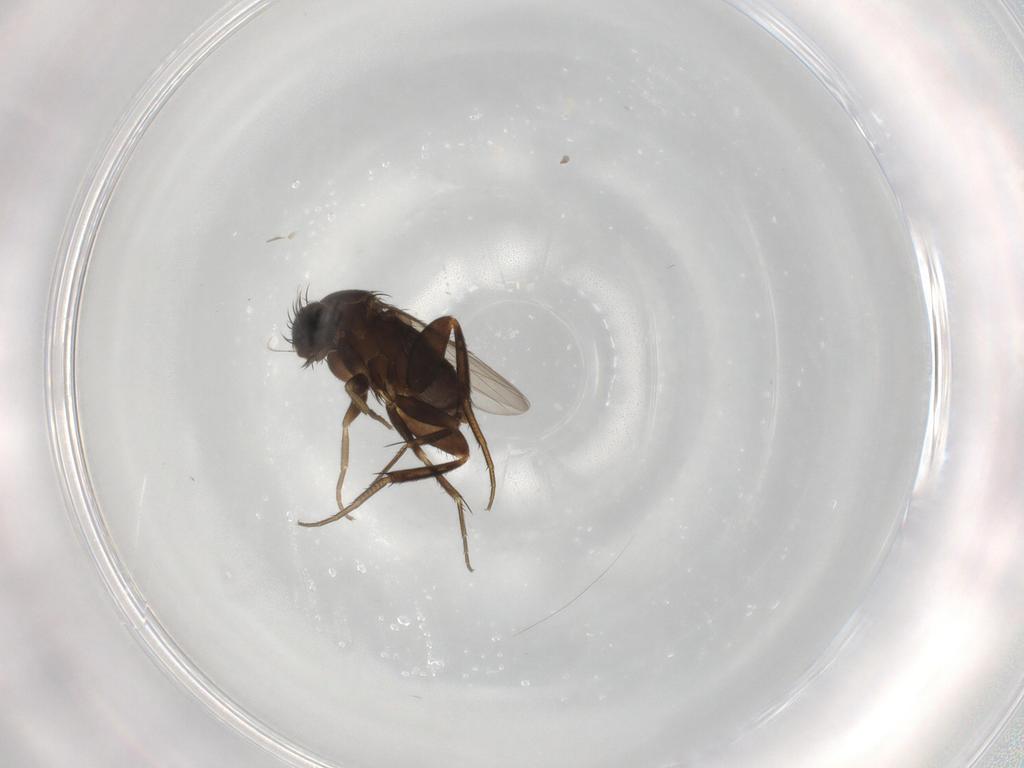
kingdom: Animalia
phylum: Arthropoda
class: Insecta
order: Diptera
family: Phoridae
